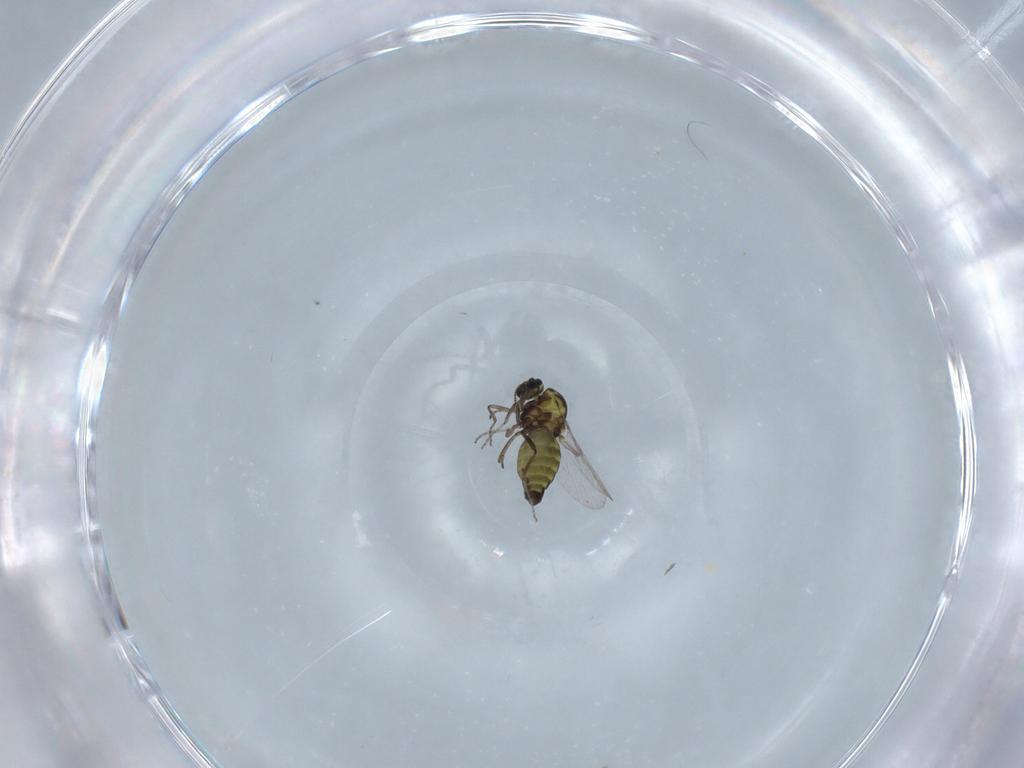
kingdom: Animalia
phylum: Arthropoda
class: Insecta
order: Diptera
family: Ceratopogonidae
